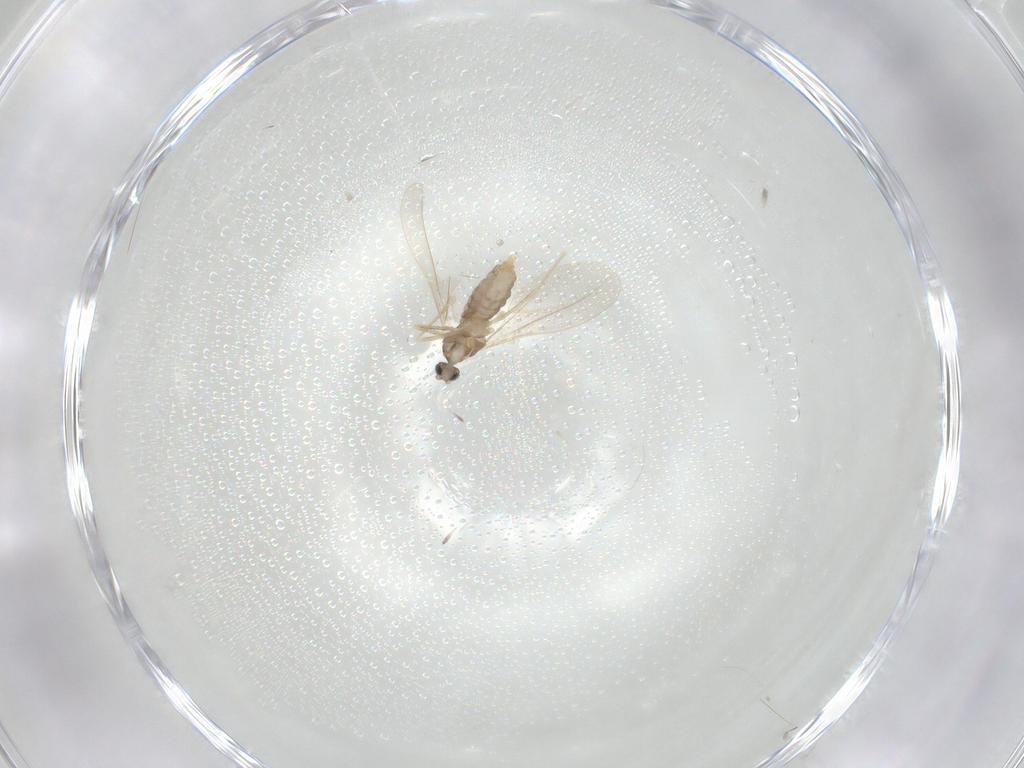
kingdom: Animalia
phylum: Arthropoda
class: Insecta
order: Diptera
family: Cecidomyiidae
